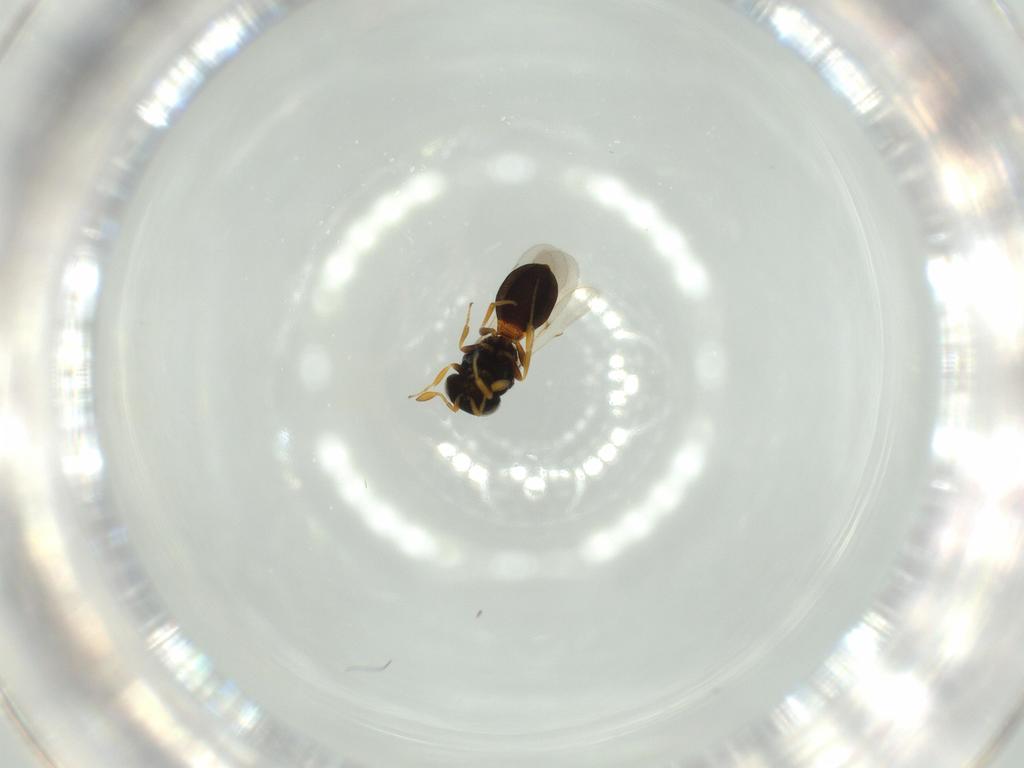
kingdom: Animalia
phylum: Arthropoda
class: Insecta
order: Hymenoptera
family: Scelionidae
